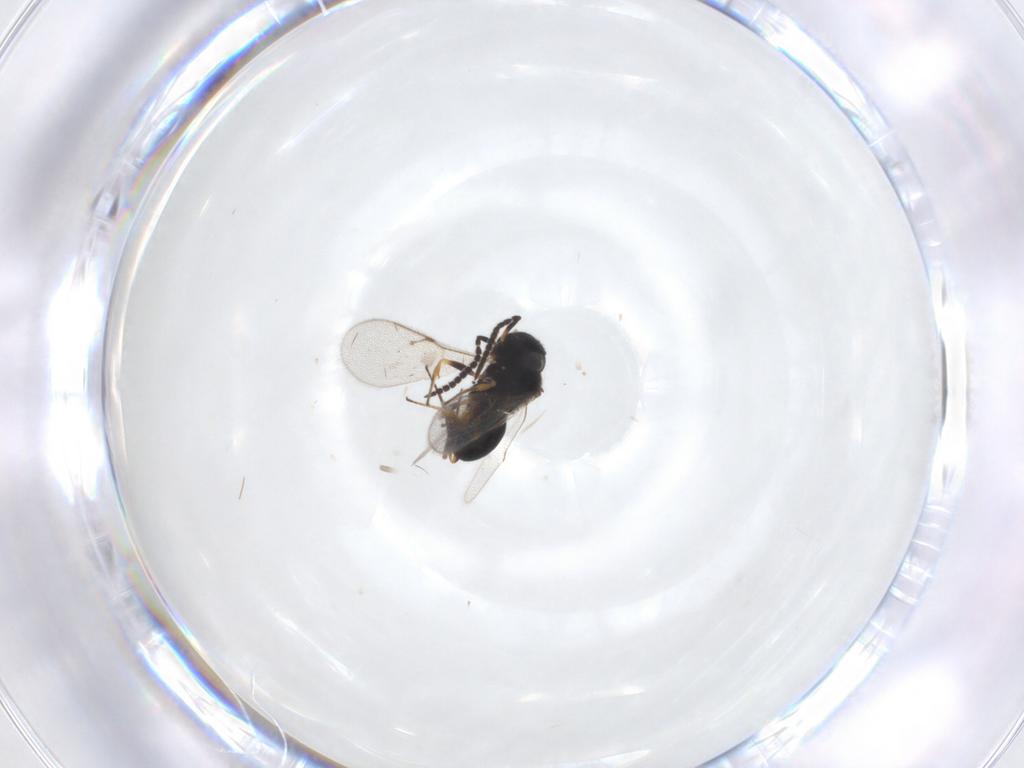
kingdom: Animalia
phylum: Arthropoda
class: Insecta
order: Hymenoptera
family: Scelionidae
